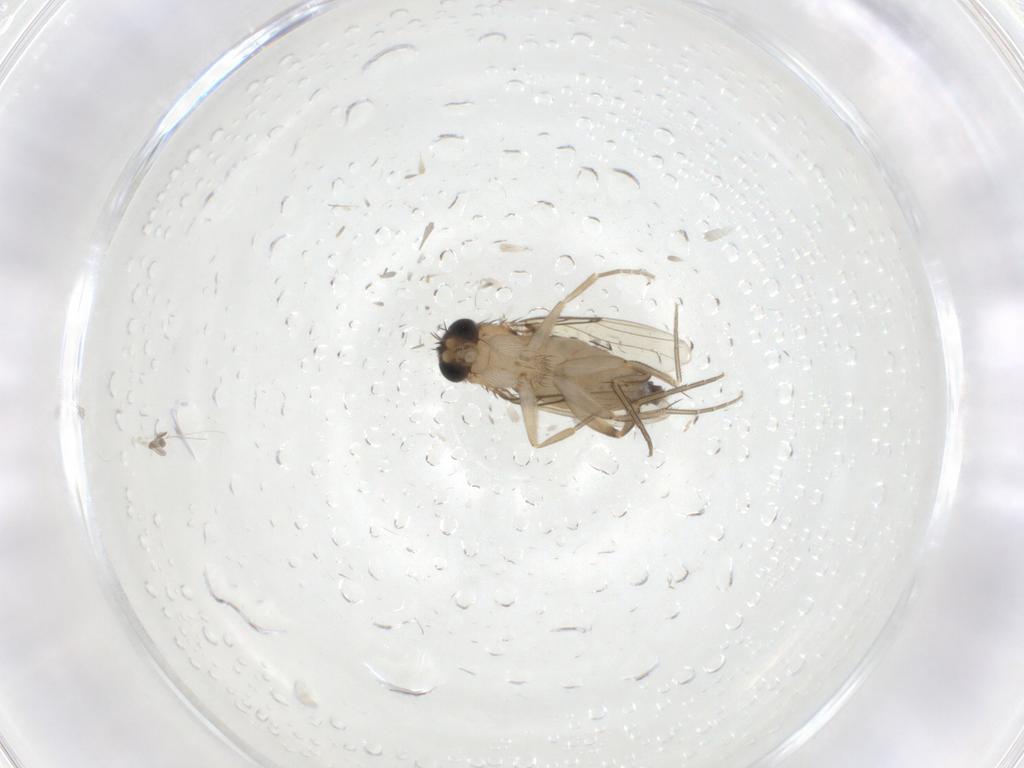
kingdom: Animalia
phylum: Arthropoda
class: Insecta
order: Diptera
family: Phoridae
